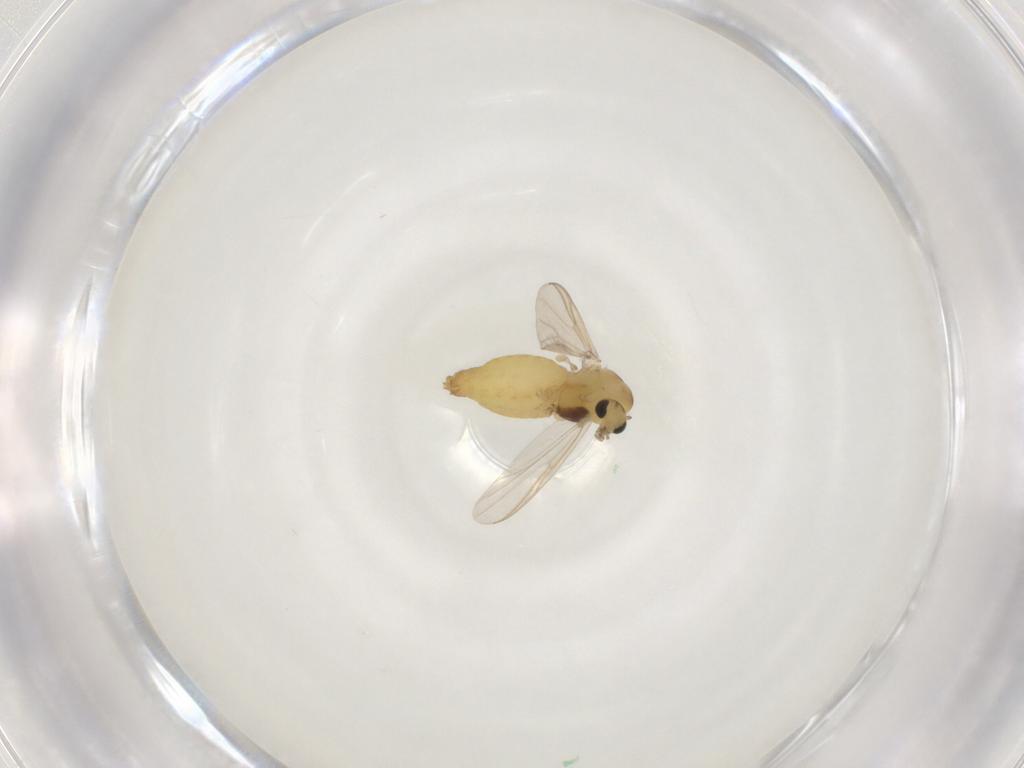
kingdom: Animalia
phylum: Arthropoda
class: Insecta
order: Diptera
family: Chironomidae
